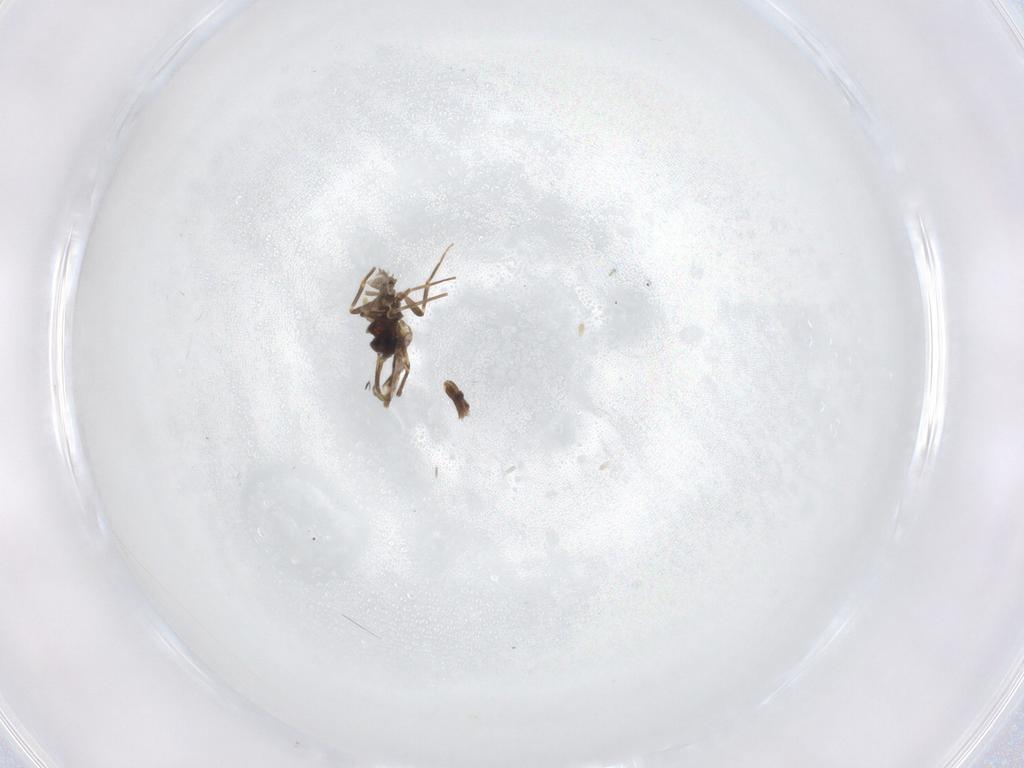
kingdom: Animalia
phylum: Arthropoda
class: Insecta
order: Diptera
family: Ceratopogonidae
